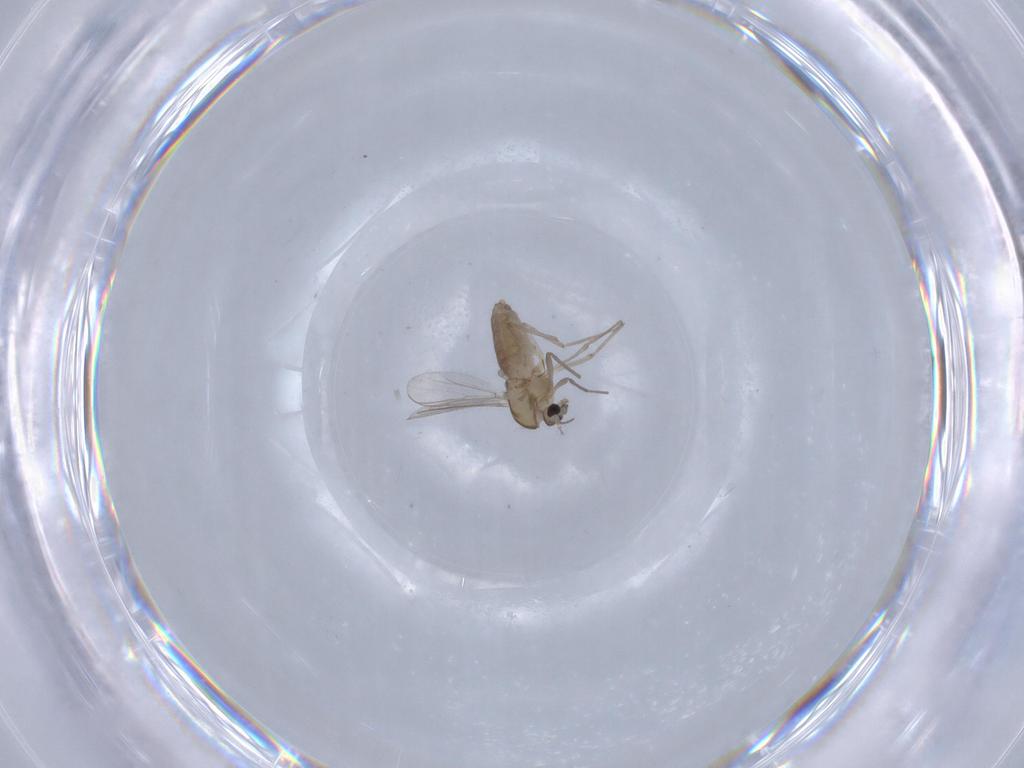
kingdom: Animalia
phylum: Arthropoda
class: Insecta
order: Diptera
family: Chironomidae
